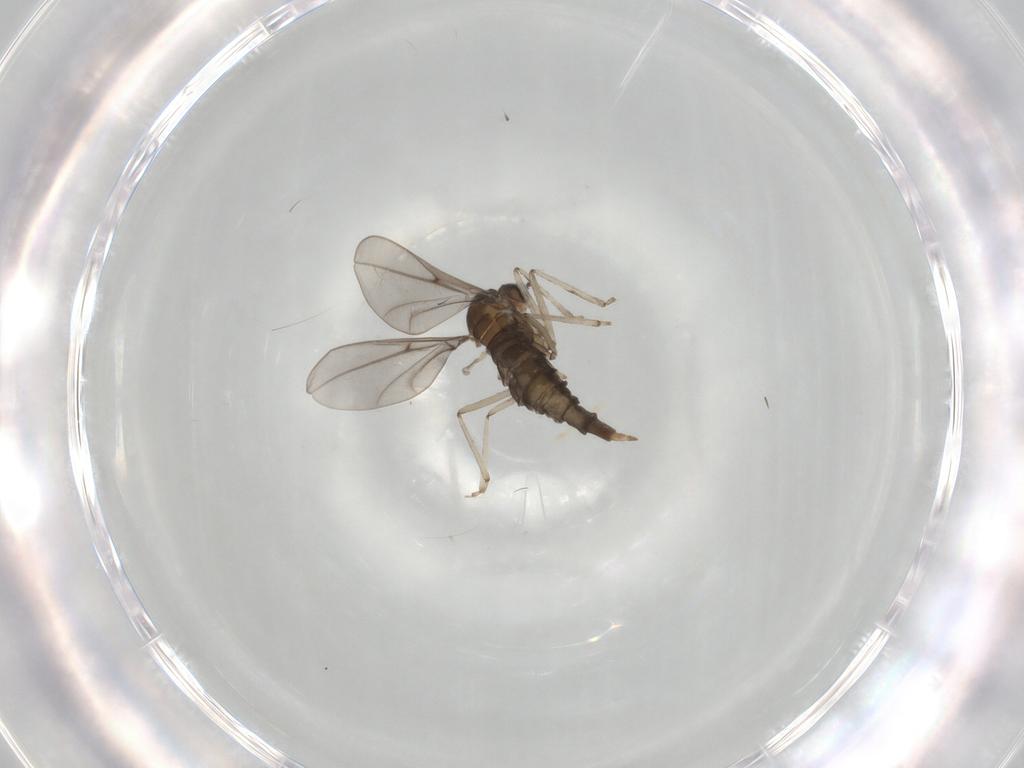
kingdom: Animalia
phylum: Arthropoda
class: Insecta
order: Diptera
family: Cecidomyiidae
